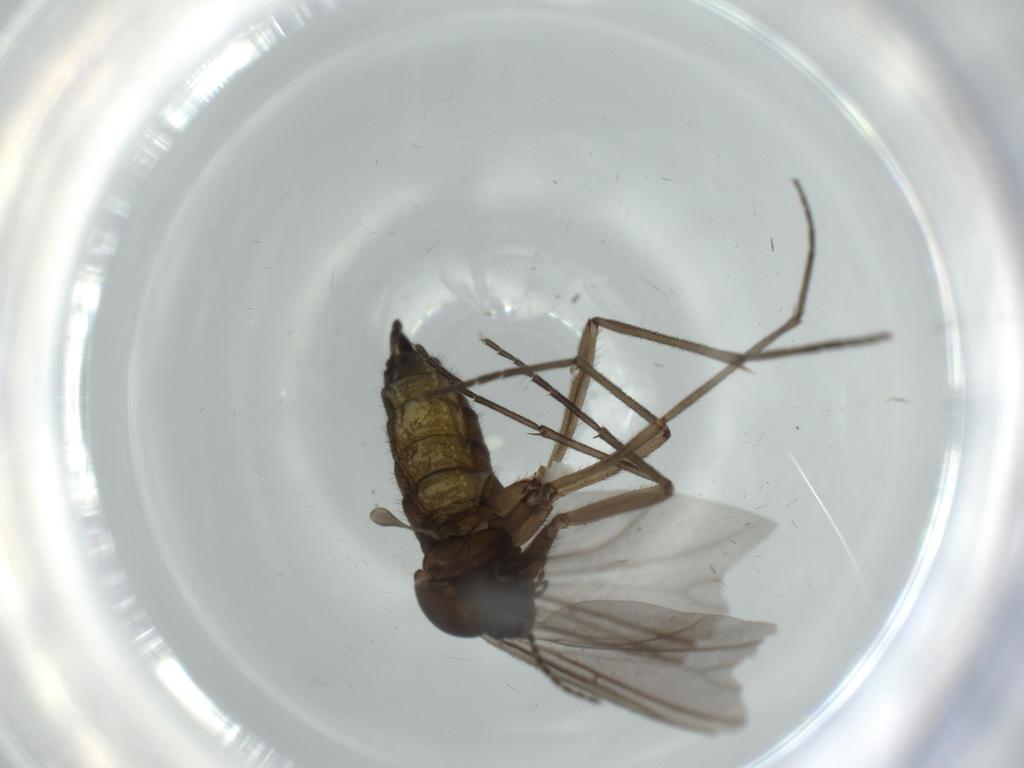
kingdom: Animalia
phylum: Arthropoda
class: Insecta
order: Diptera
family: Sciaridae
